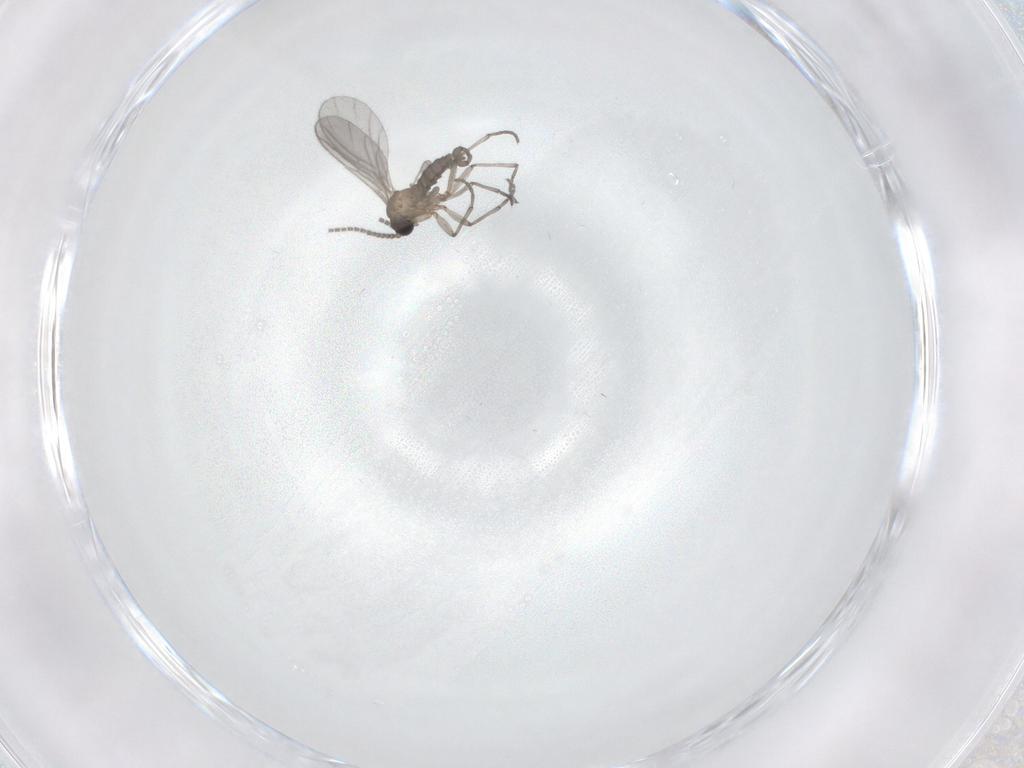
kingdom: Animalia
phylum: Arthropoda
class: Insecta
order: Diptera
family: Sciaridae
